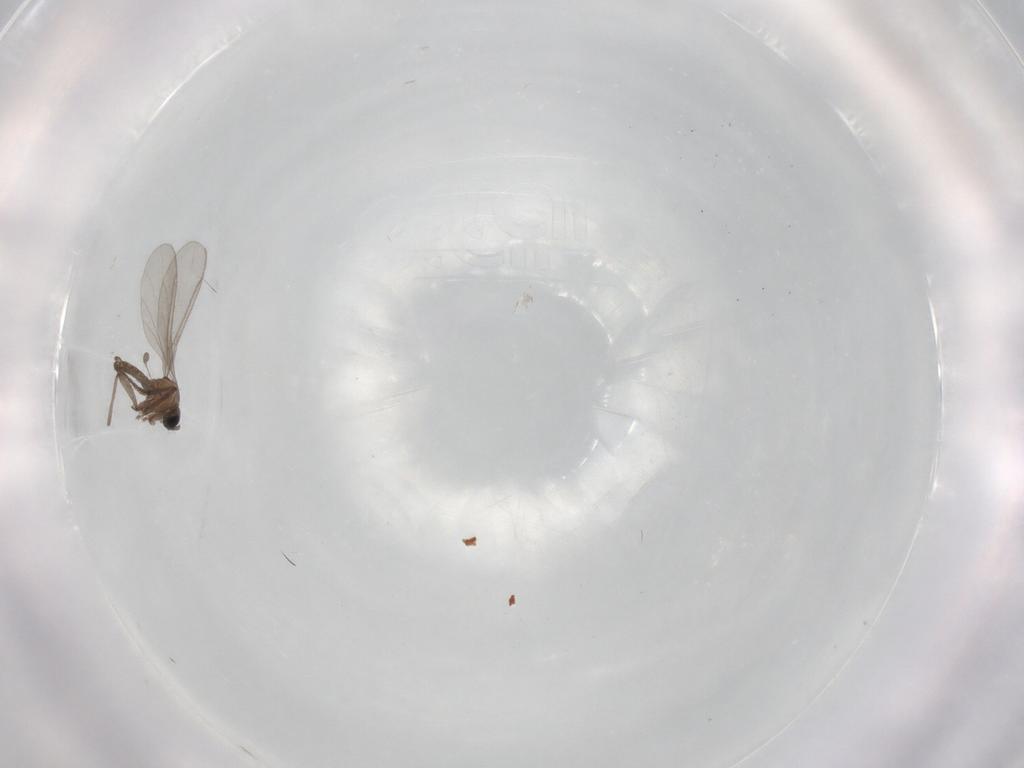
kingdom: Animalia
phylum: Arthropoda
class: Insecta
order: Diptera
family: Sciaridae
